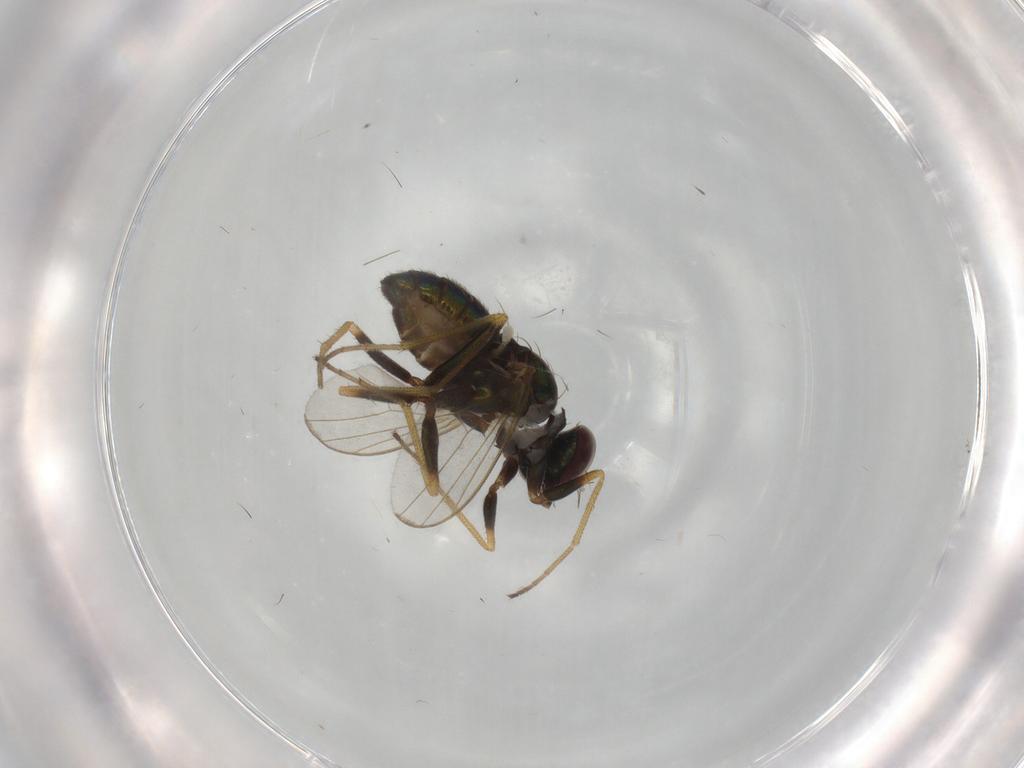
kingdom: Animalia
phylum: Arthropoda
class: Insecta
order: Diptera
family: Dolichopodidae
